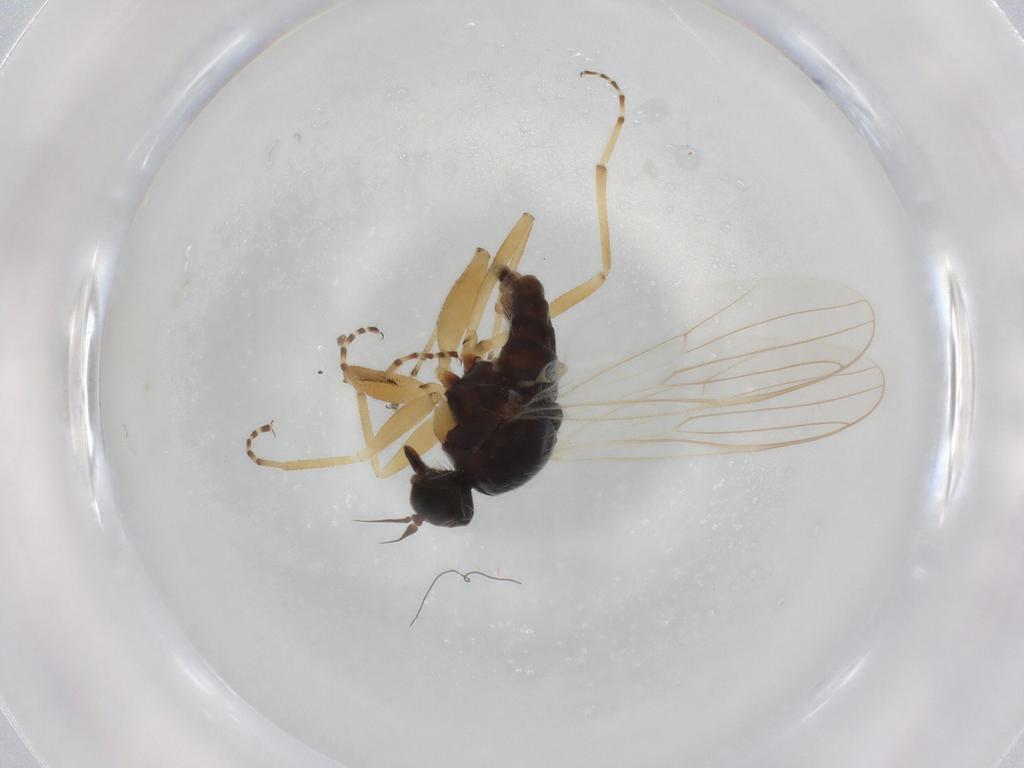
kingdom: Animalia
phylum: Arthropoda
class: Insecta
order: Diptera
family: Hybotidae
